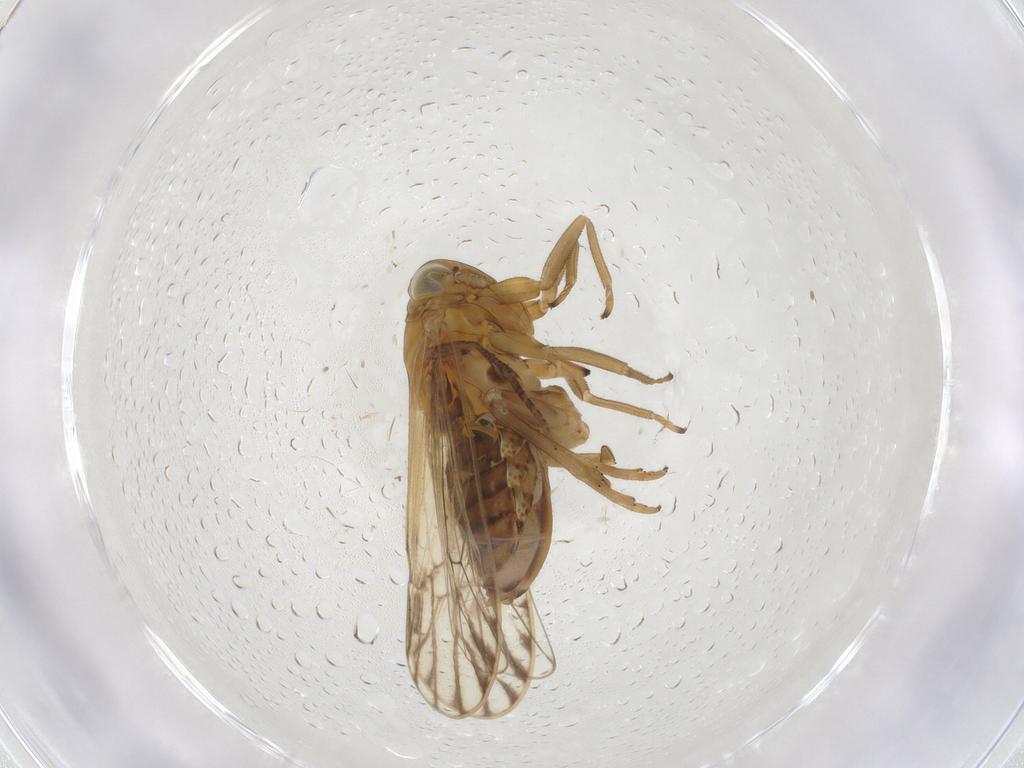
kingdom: Animalia
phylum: Arthropoda
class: Insecta
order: Hemiptera
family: Delphacidae
